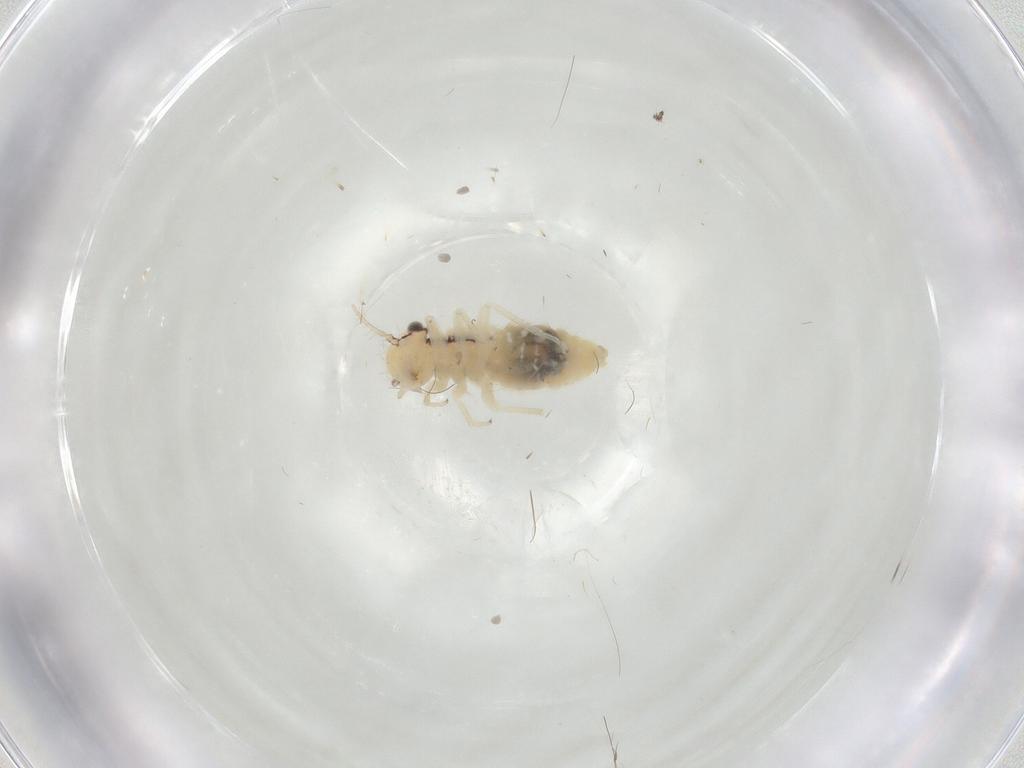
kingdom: Animalia
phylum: Arthropoda
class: Insecta
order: Psocodea
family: Philotarsidae
